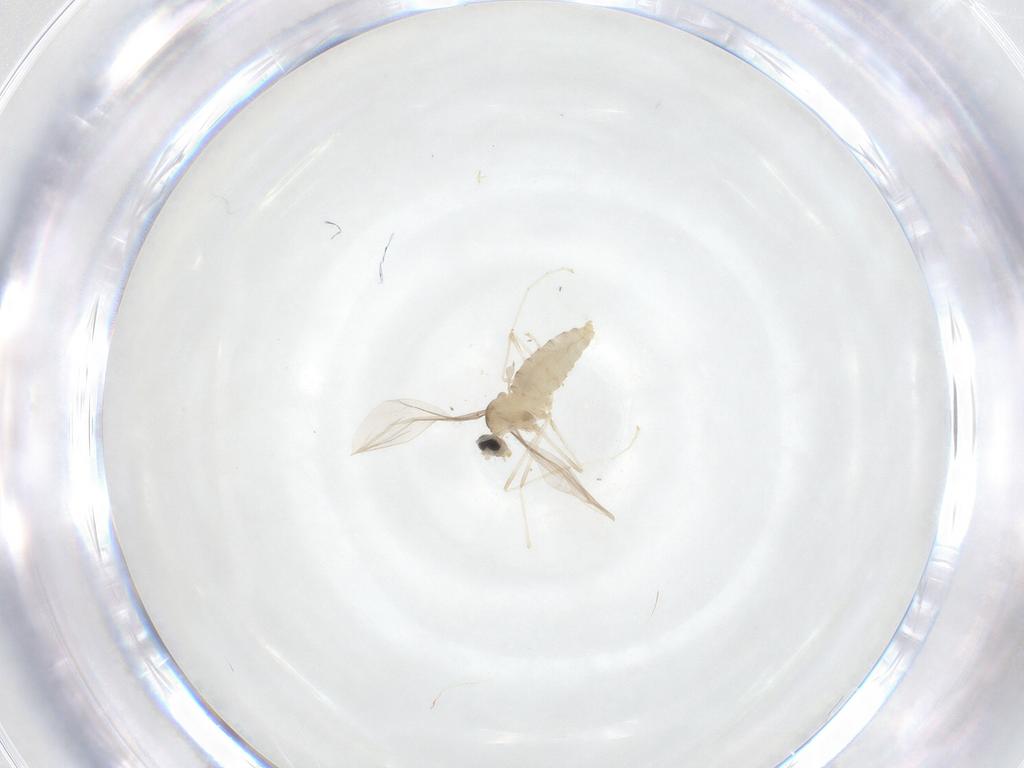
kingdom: Animalia
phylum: Arthropoda
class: Insecta
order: Diptera
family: Cecidomyiidae
